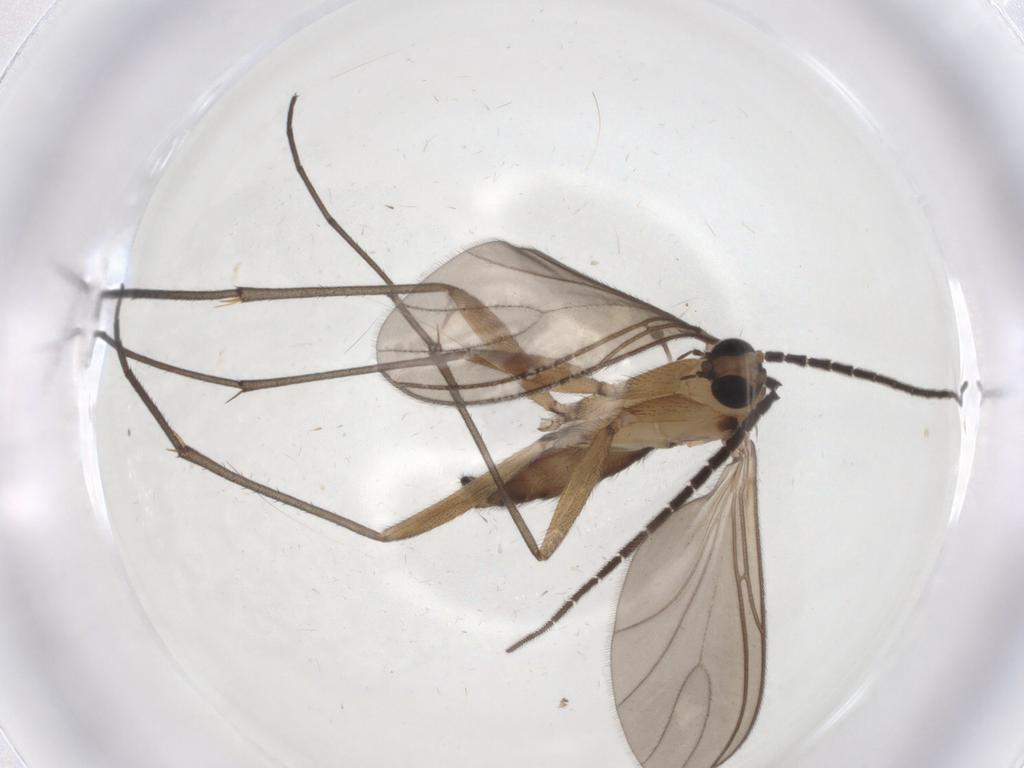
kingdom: Animalia
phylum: Arthropoda
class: Insecta
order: Diptera
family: Sciaridae
